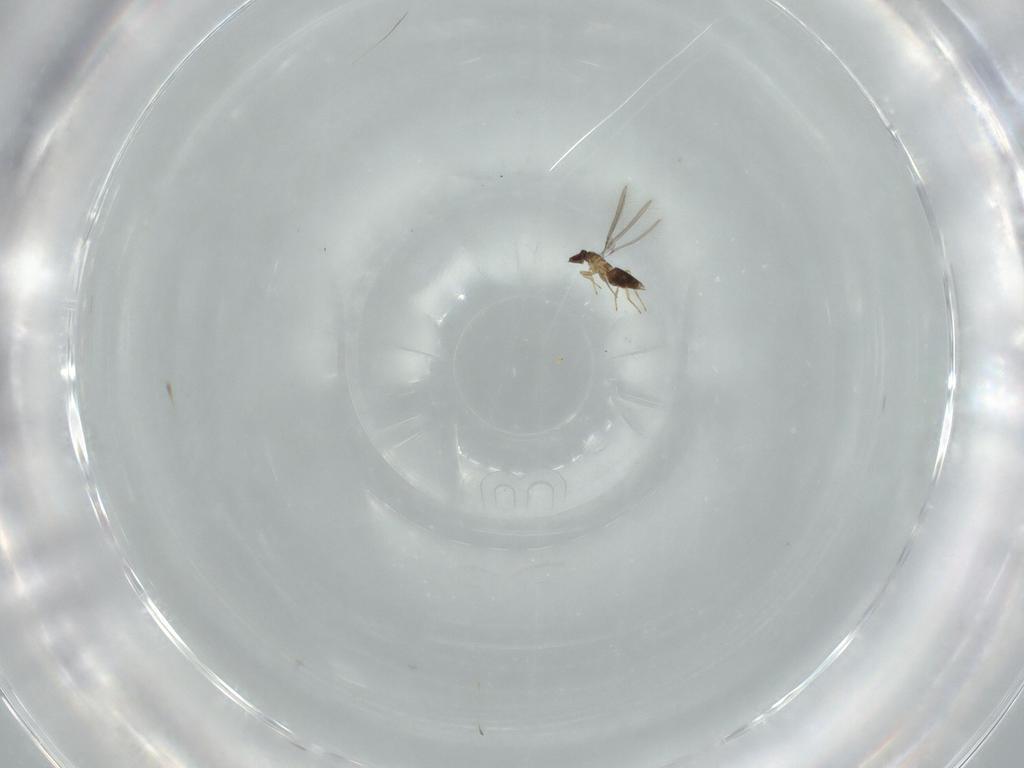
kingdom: Animalia
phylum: Arthropoda
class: Insecta
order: Hymenoptera
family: Mymaridae
